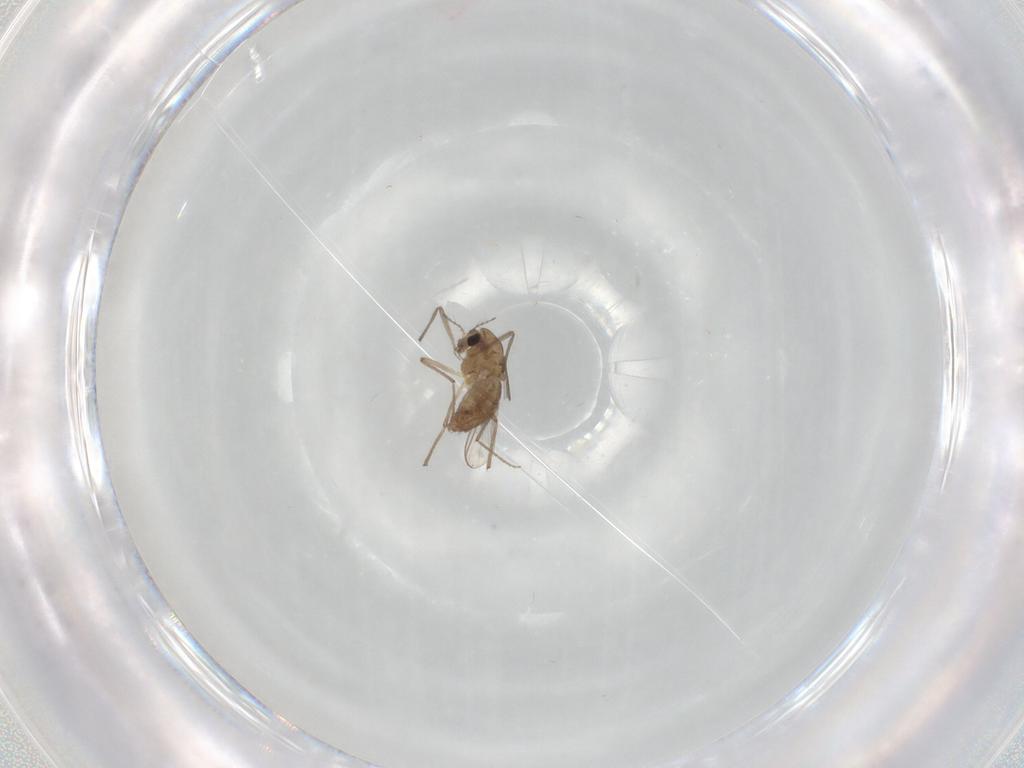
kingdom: Animalia
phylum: Arthropoda
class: Insecta
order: Diptera
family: Chironomidae
